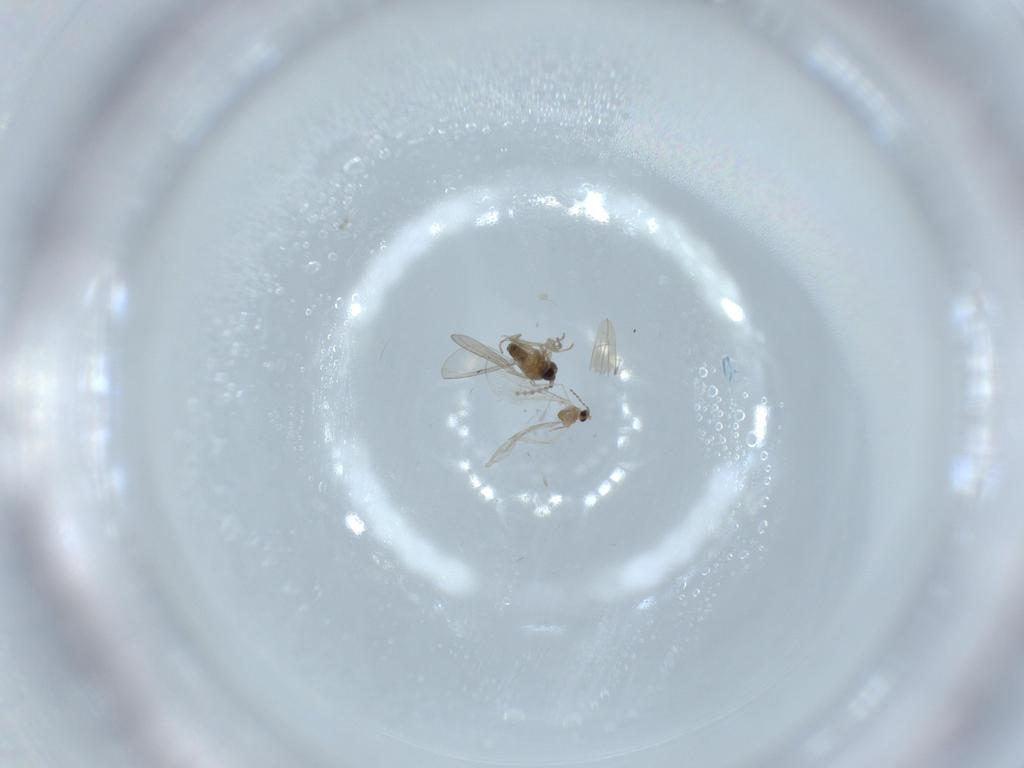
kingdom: Animalia
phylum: Arthropoda
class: Insecta
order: Diptera
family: Cecidomyiidae
